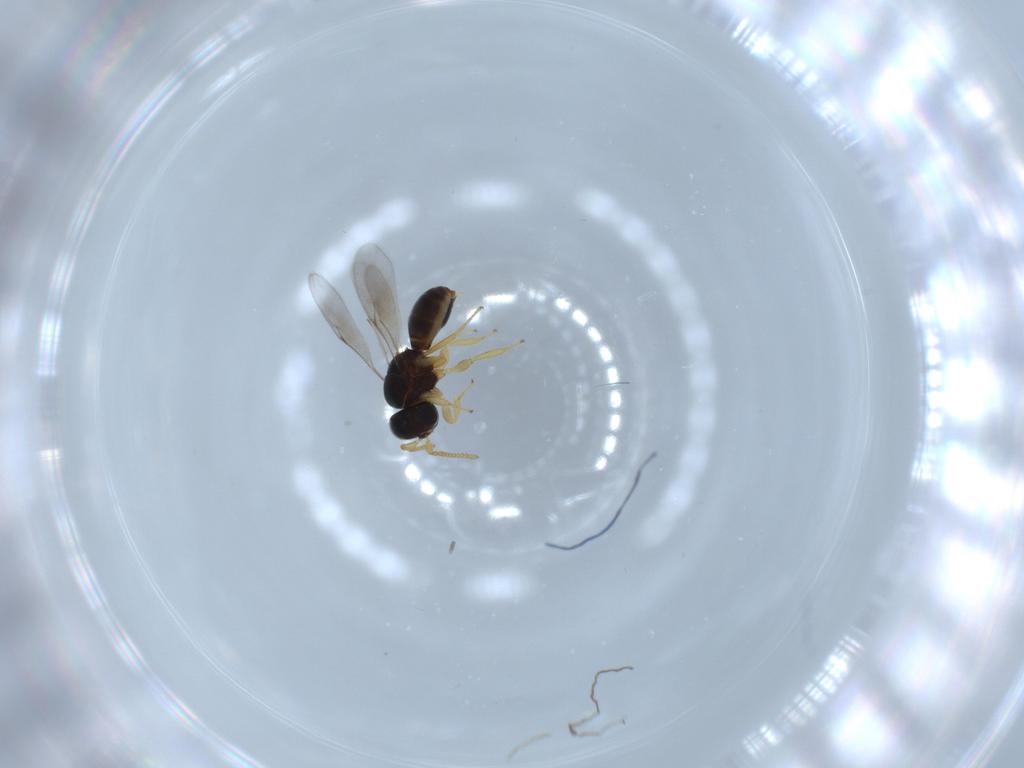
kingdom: Animalia
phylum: Arthropoda
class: Insecta
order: Hymenoptera
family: Scelionidae
